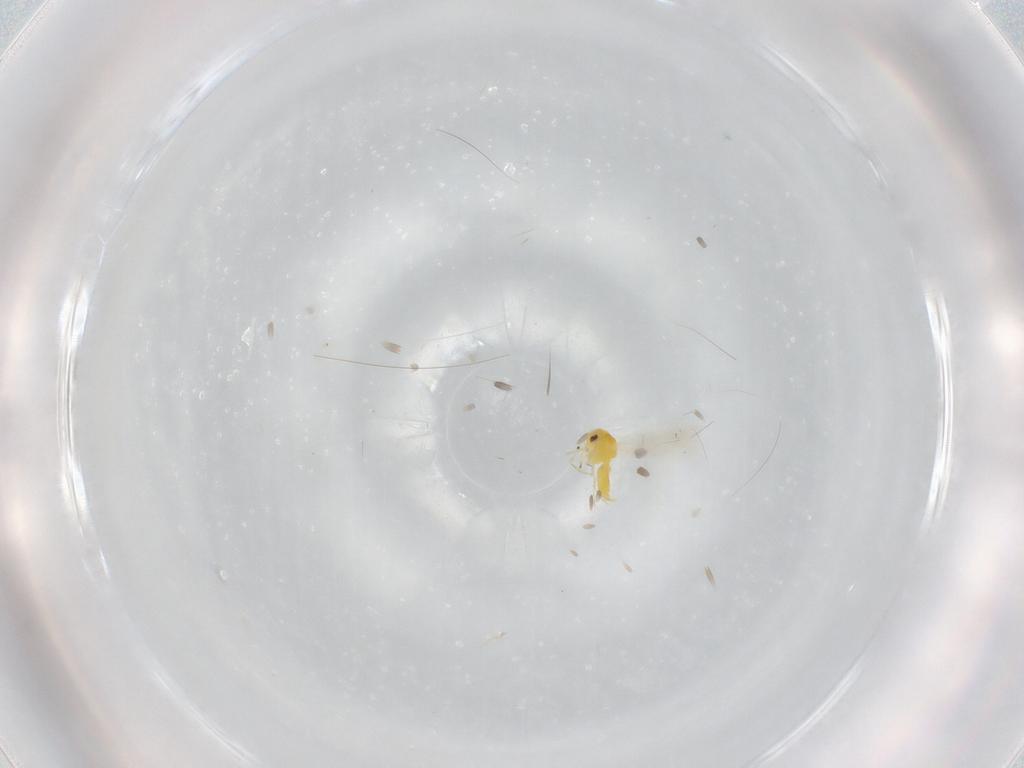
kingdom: Animalia
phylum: Arthropoda
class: Insecta
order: Hemiptera
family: Aleyrodidae
